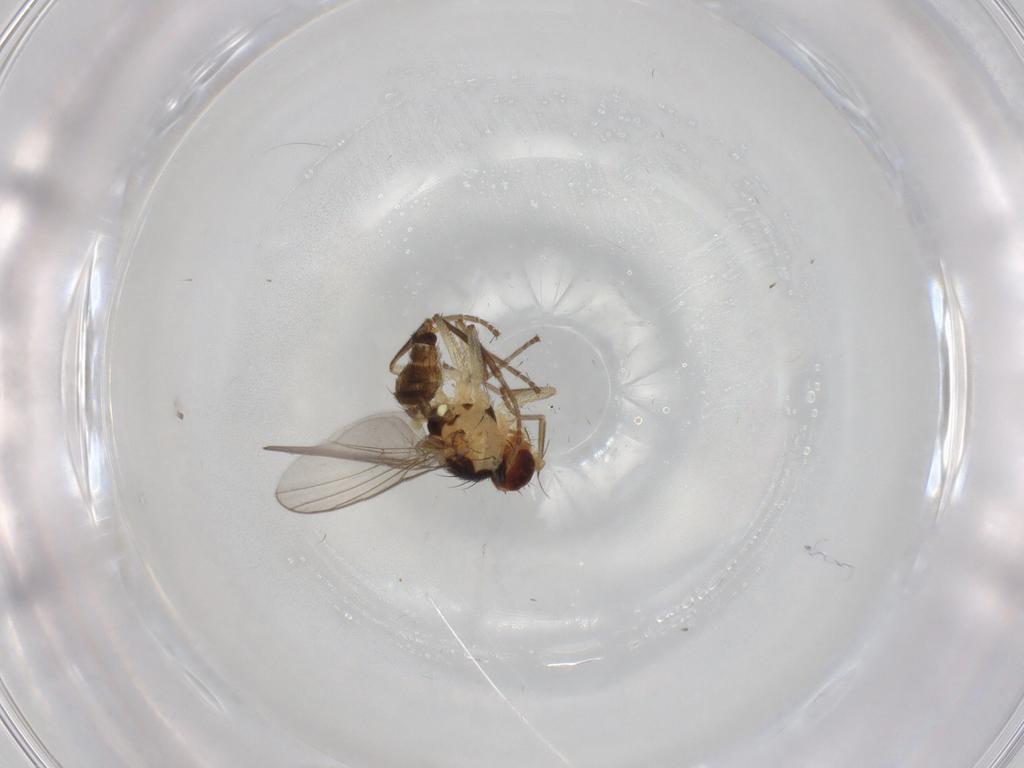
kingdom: Animalia
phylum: Arthropoda
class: Insecta
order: Diptera
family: Agromyzidae
